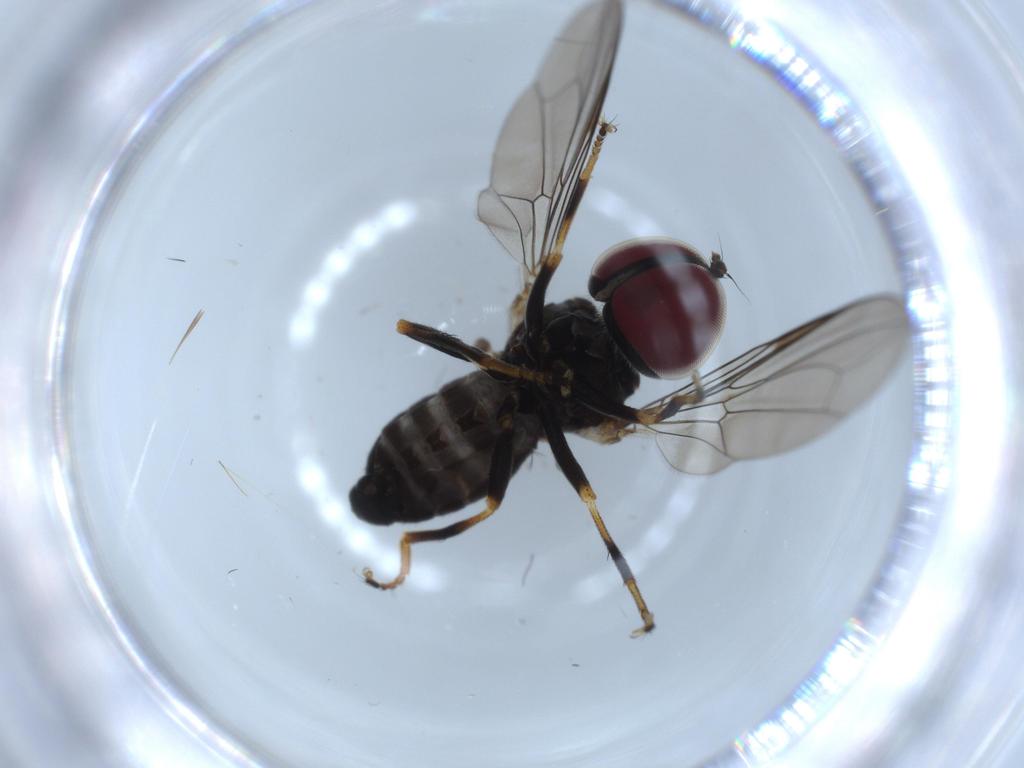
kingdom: Animalia
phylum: Arthropoda
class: Insecta
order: Diptera
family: Pipunculidae
